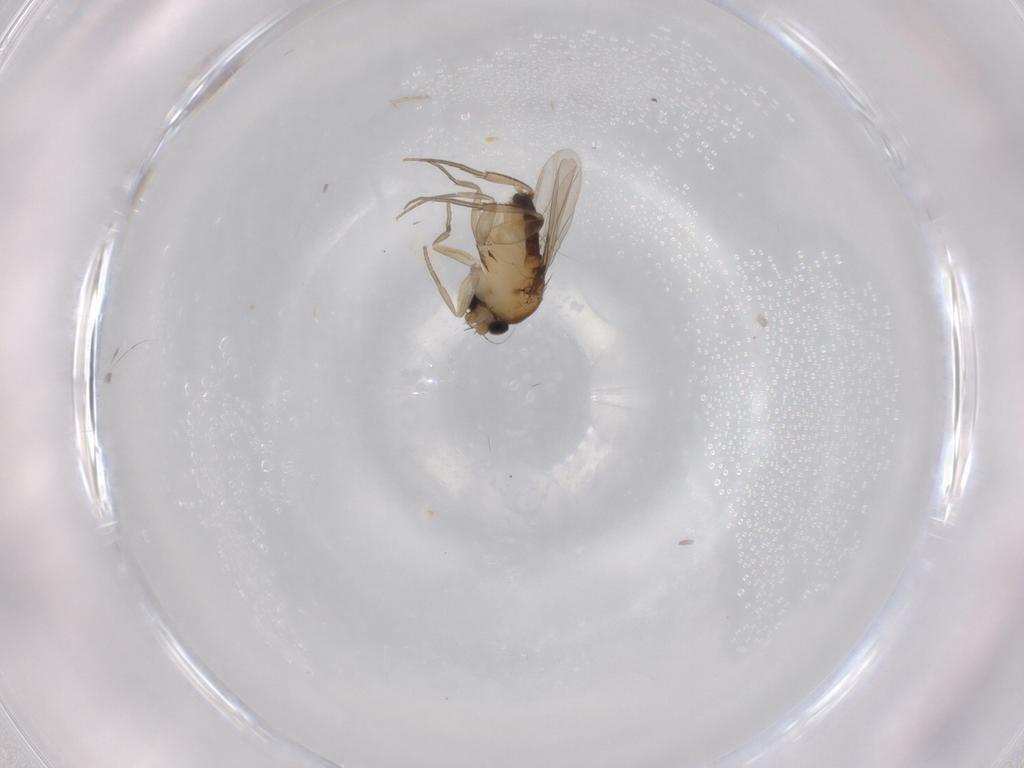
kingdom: Animalia
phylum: Arthropoda
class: Insecta
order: Diptera
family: Phoridae
